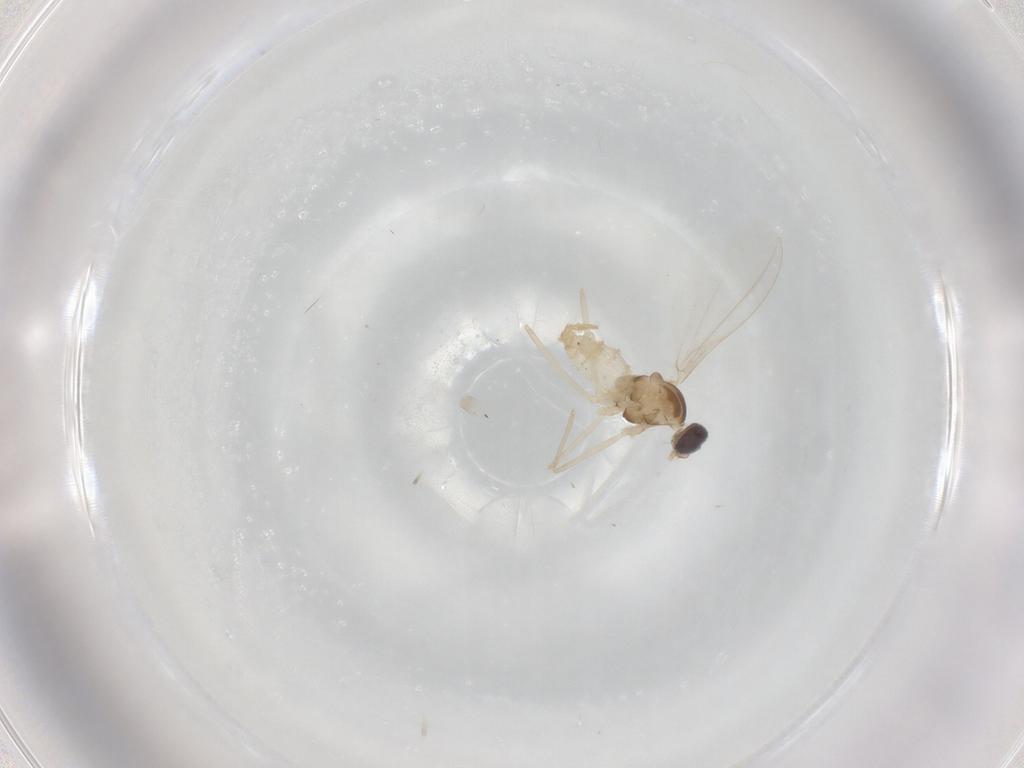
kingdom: Animalia
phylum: Arthropoda
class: Insecta
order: Diptera
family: Cecidomyiidae
